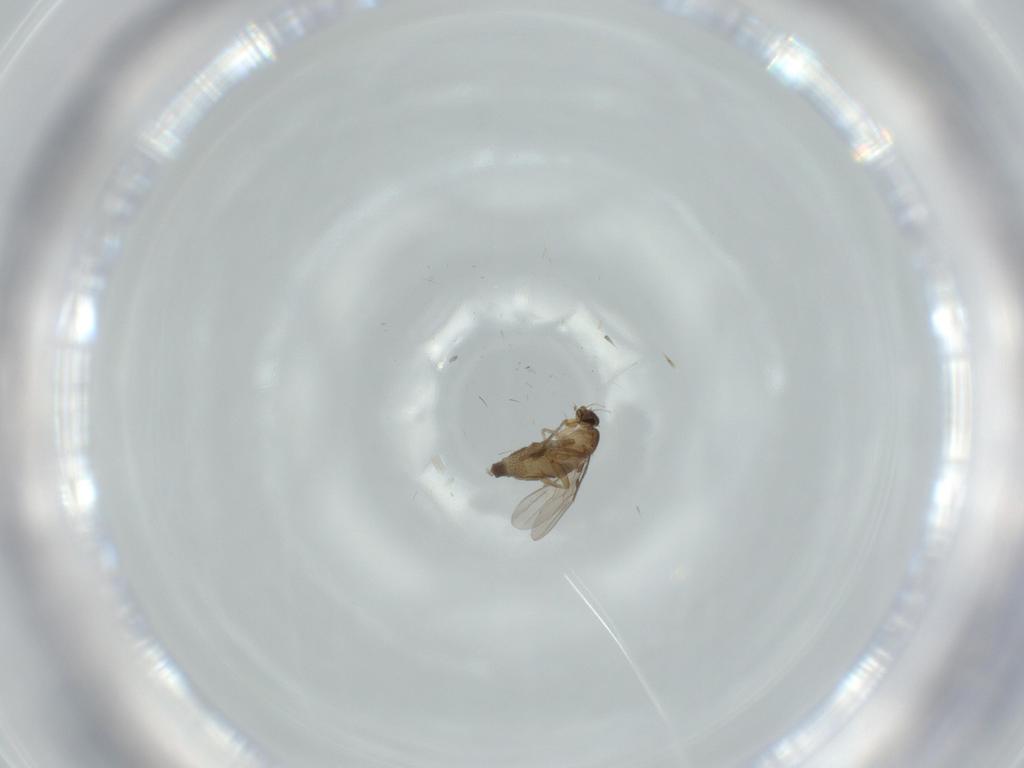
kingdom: Animalia
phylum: Arthropoda
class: Insecta
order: Diptera
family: Phoridae
